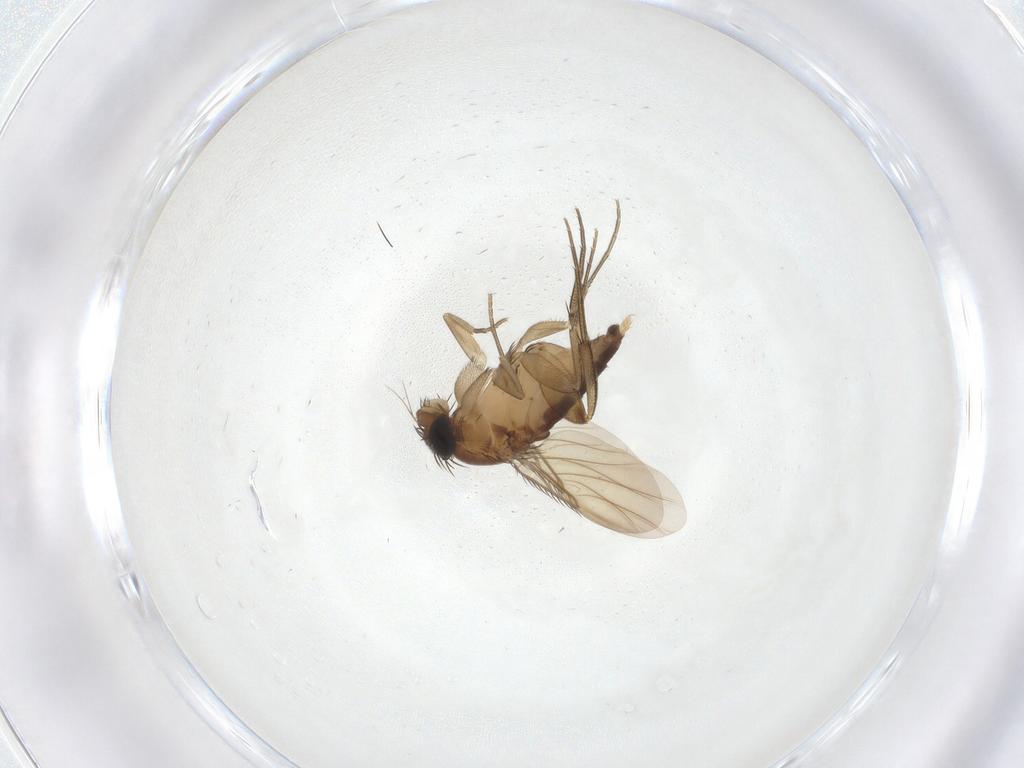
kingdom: Animalia
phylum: Arthropoda
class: Insecta
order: Diptera
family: Phoridae
